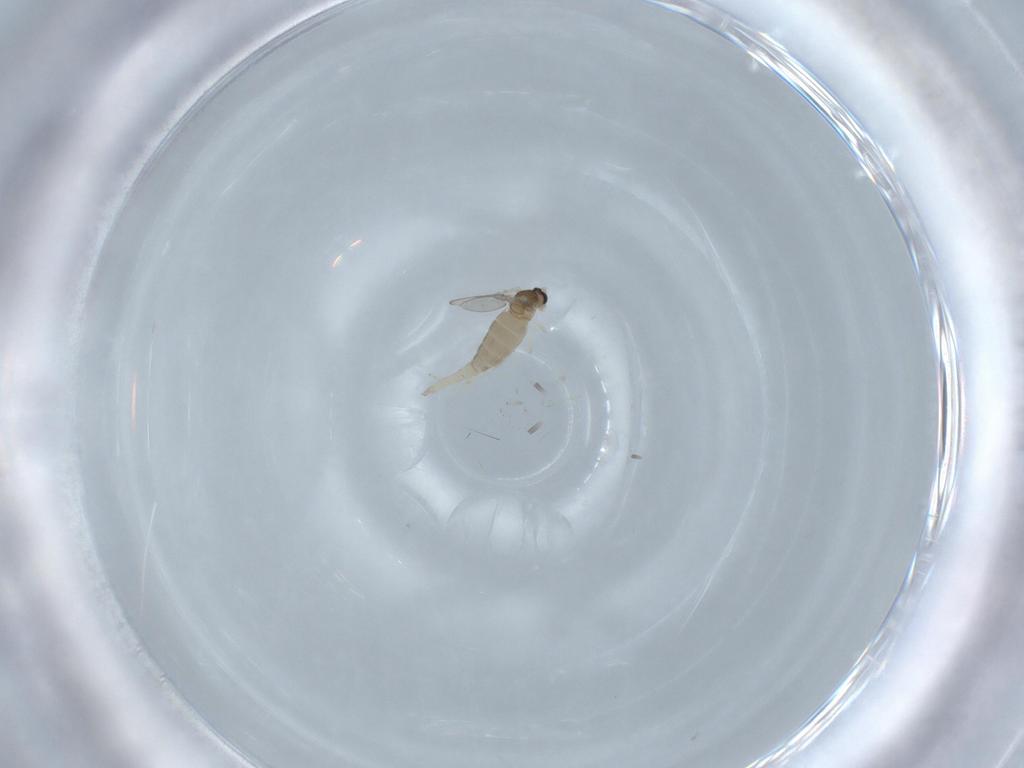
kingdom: Animalia
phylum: Arthropoda
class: Insecta
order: Diptera
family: Cecidomyiidae
